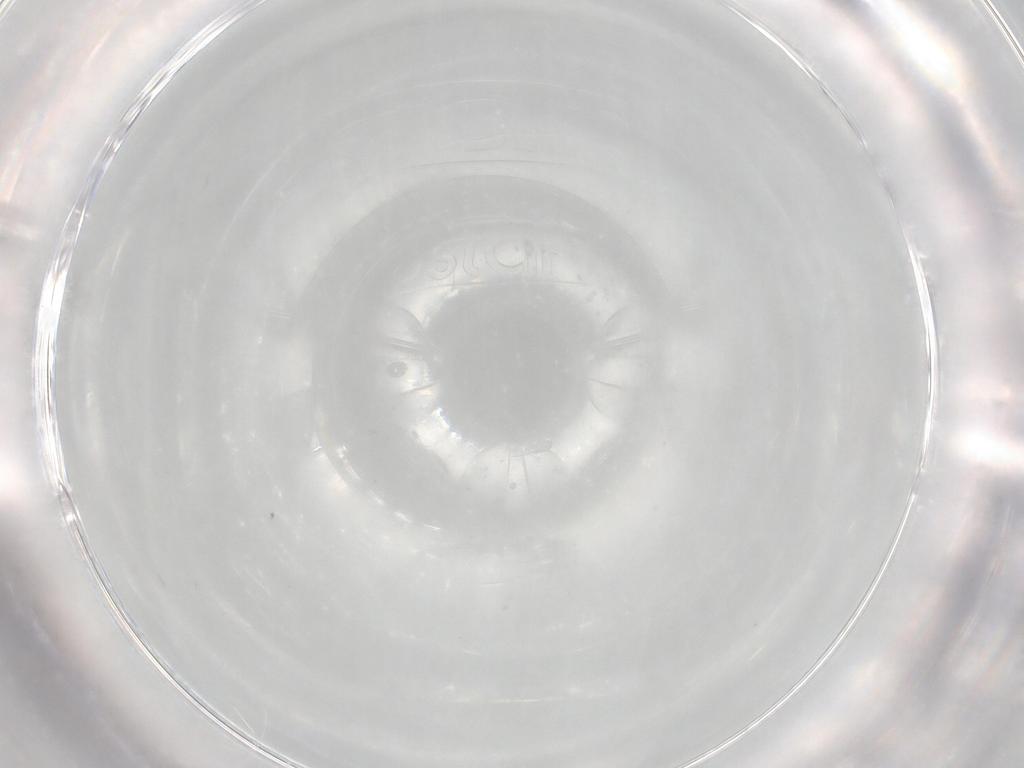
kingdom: Animalia
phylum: Arthropoda
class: Insecta
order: Diptera
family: Cecidomyiidae
